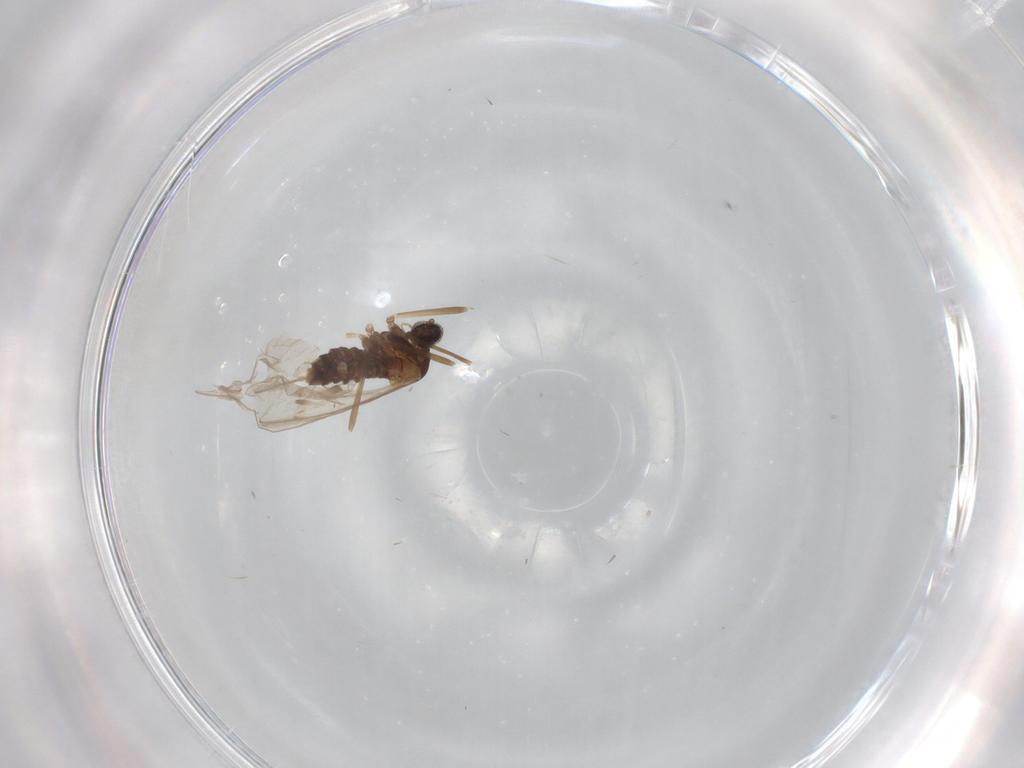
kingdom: Animalia
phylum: Arthropoda
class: Insecta
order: Diptera
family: Cecidomyiidae
